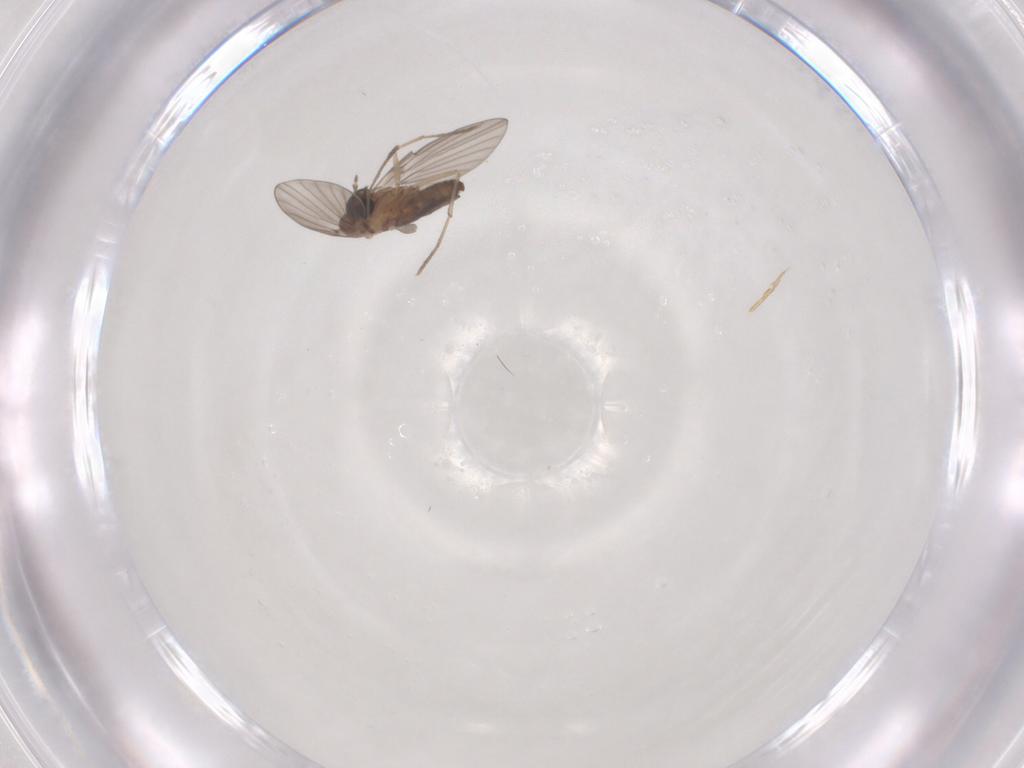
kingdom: Animalia
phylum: Arthropoda
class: Insecta
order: Diptera
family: Psychodidae
